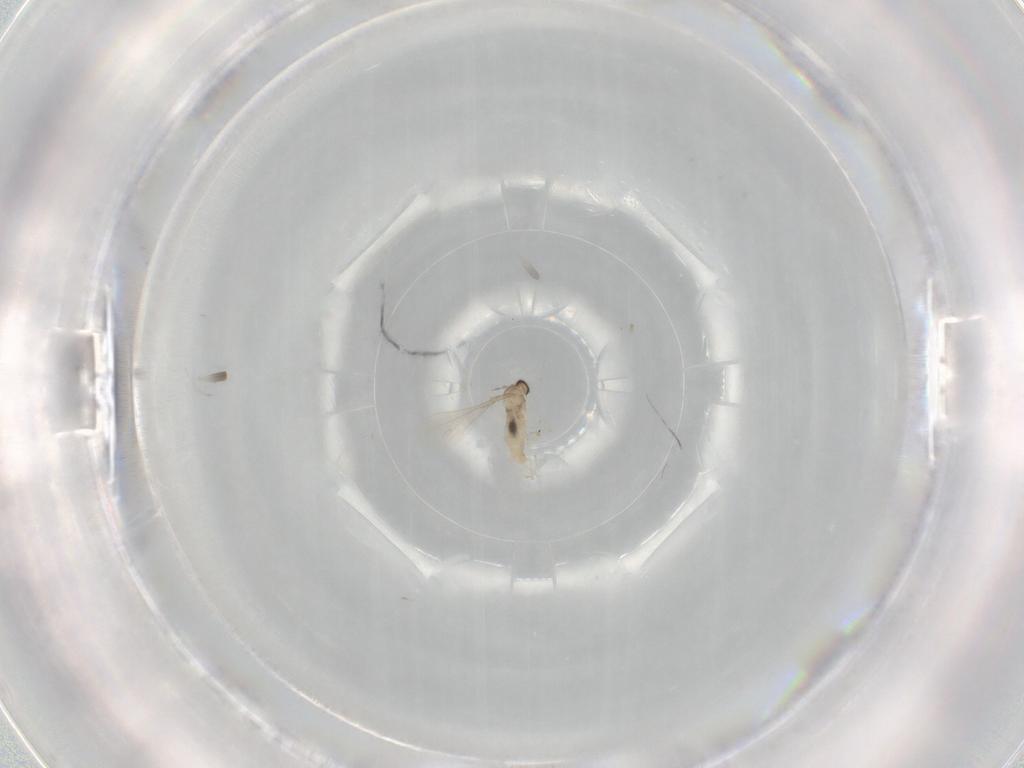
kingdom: Animalia
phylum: Arthropoda
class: Insecta
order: Diptera
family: Cecidomyiidae
